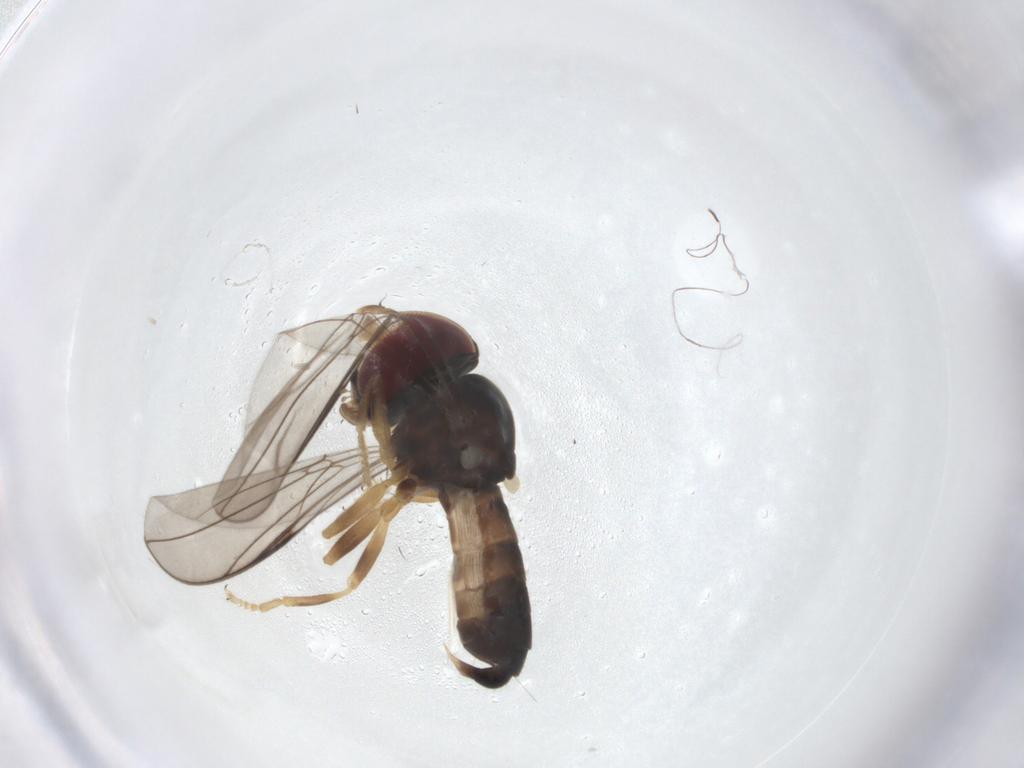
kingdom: Animalia
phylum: Arthropoda
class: Insecta
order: Diptera
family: Pipunculidae
